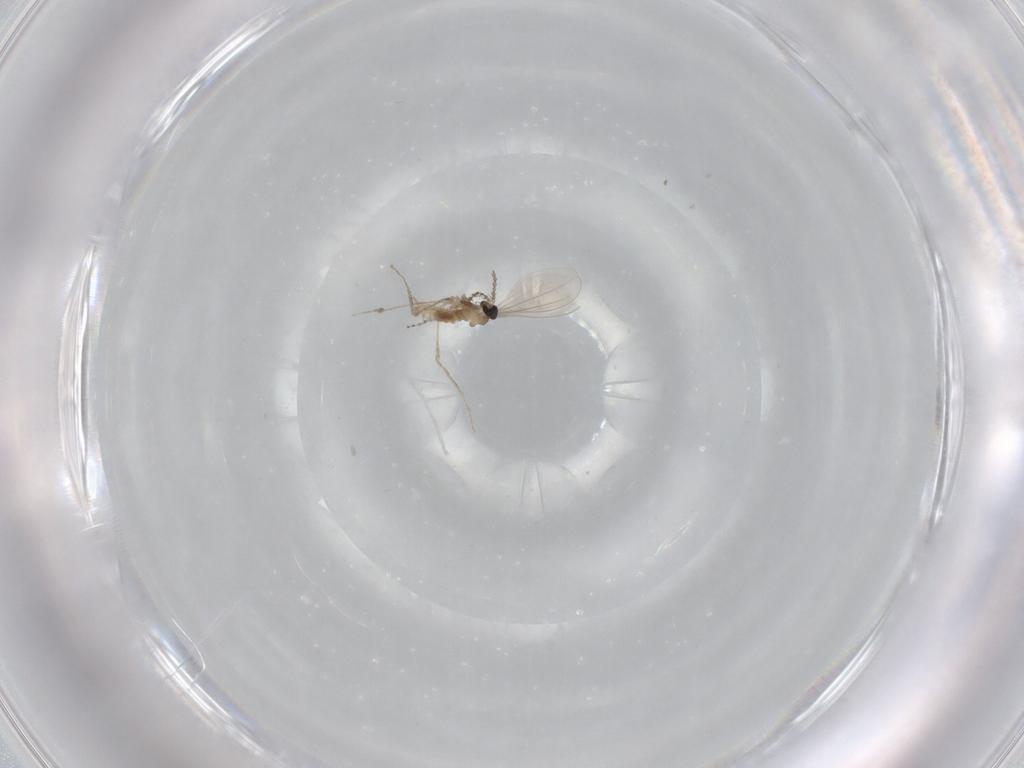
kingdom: Animalia
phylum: Arthropoda
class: Insecta
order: Diptera
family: Cecidomyiidae
